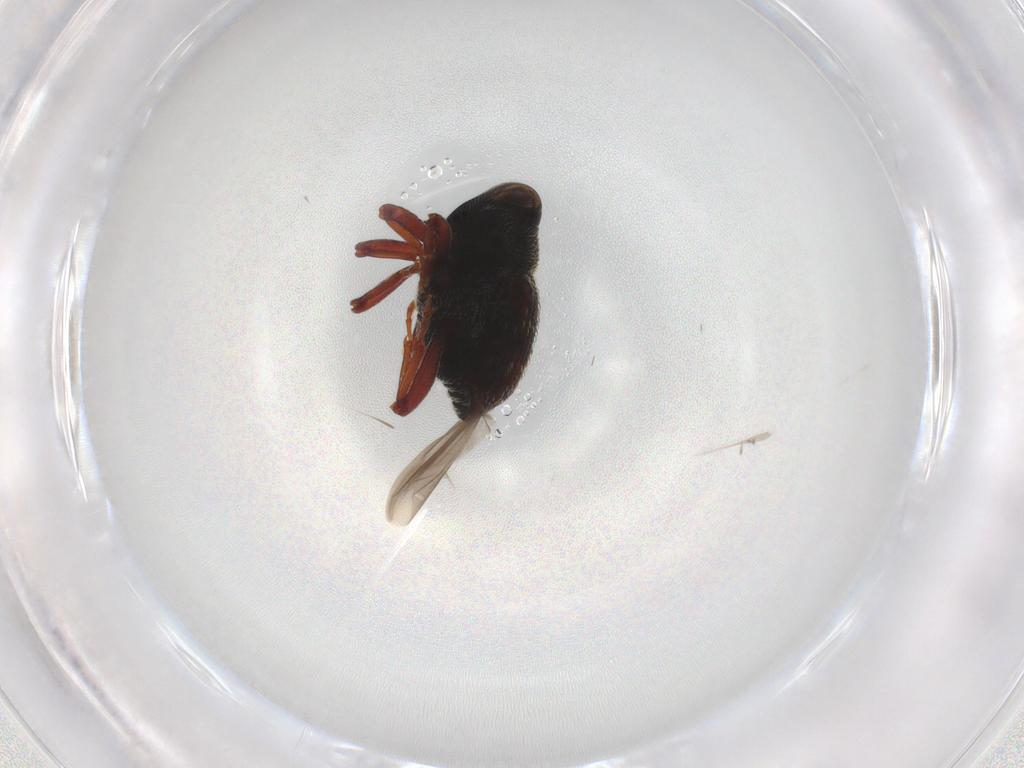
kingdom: Animalia
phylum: Arthropoda
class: Insecta
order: Coleoptera
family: Curculionidae
